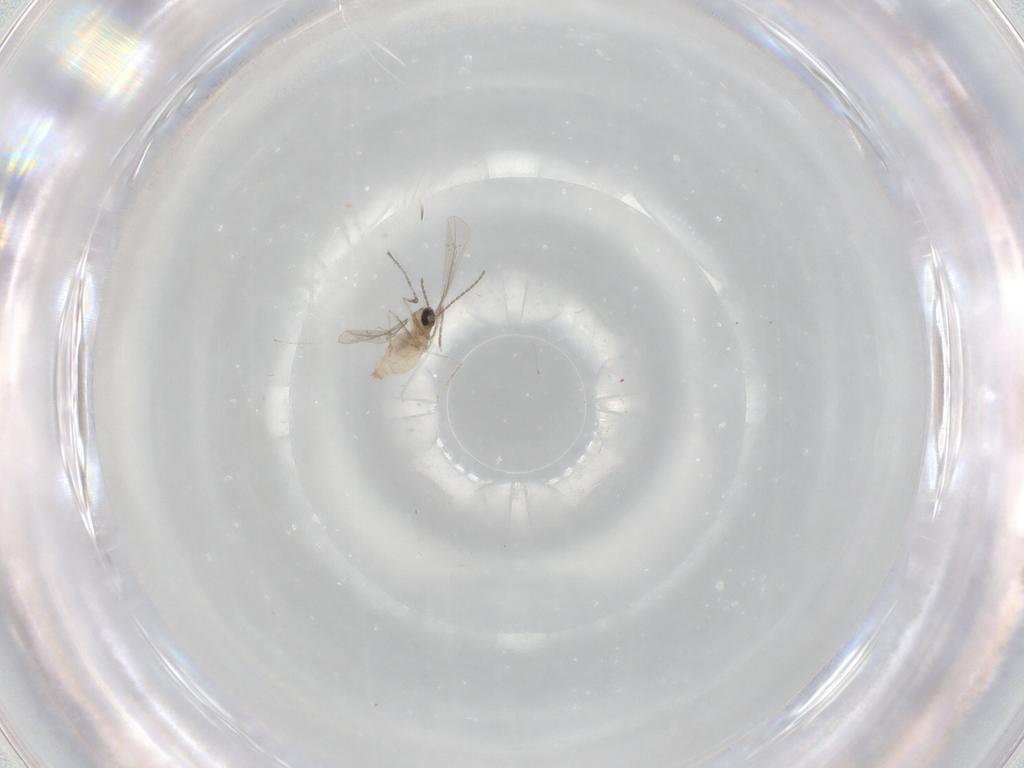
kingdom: Animalia
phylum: Arthropoda
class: Insecta
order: Diptera
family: Cecidomyiidae
